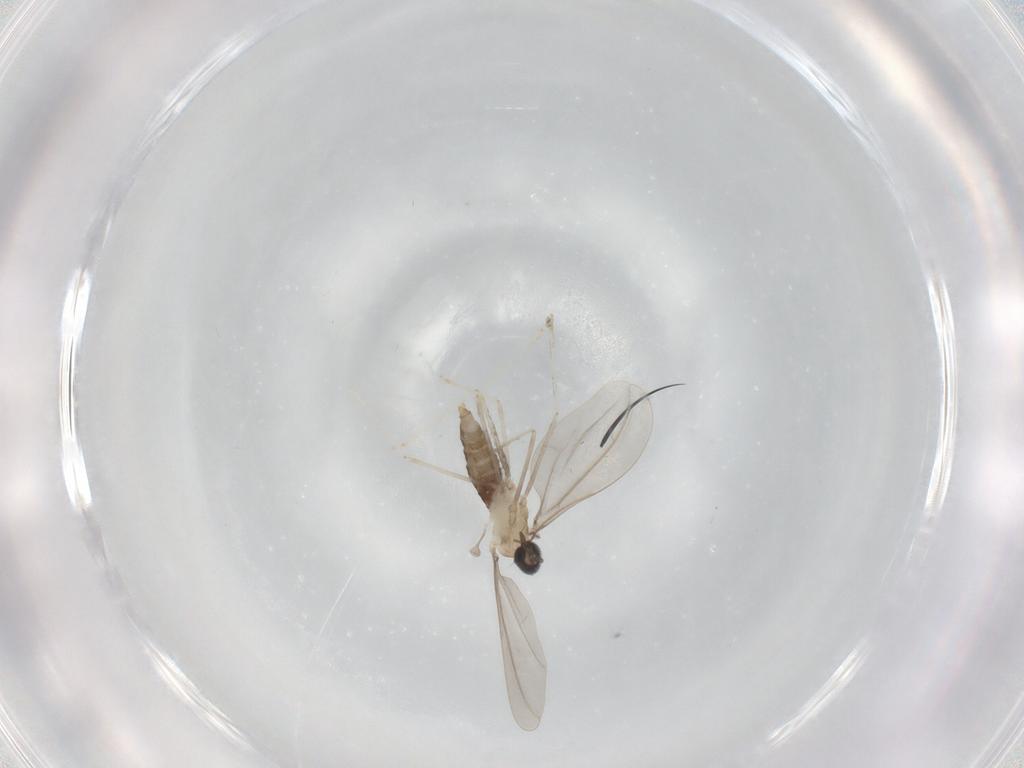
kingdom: Animalia
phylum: Arthropoda
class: Insecta
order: Diptera
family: Cecidomyiidae
